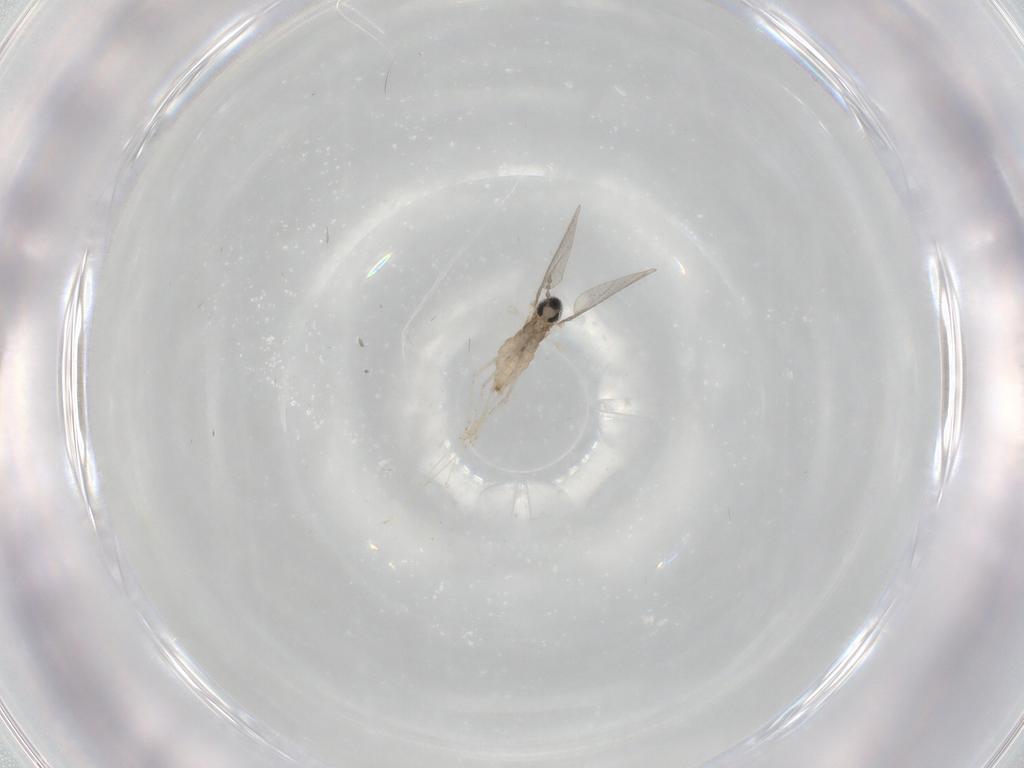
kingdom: Animalia
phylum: Arthropoda
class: Insecta
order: Diptera
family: Chironomidae
